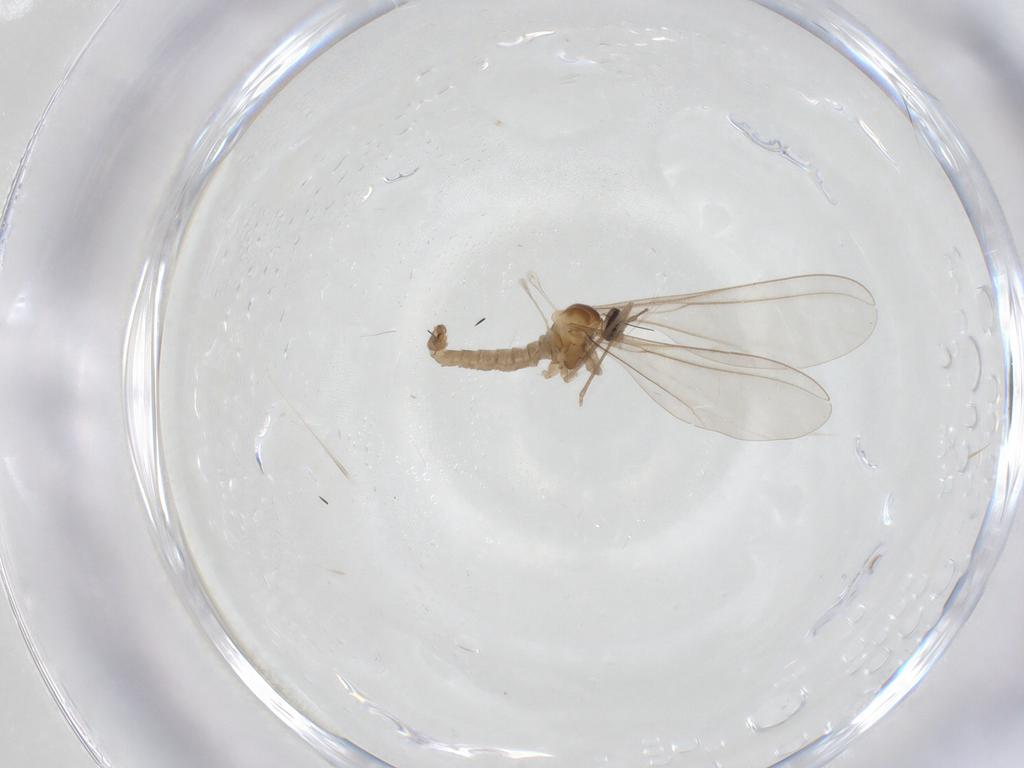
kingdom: Animalia
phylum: Arthropoda
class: Insecta
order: Diptera
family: Cecidomyiidae
